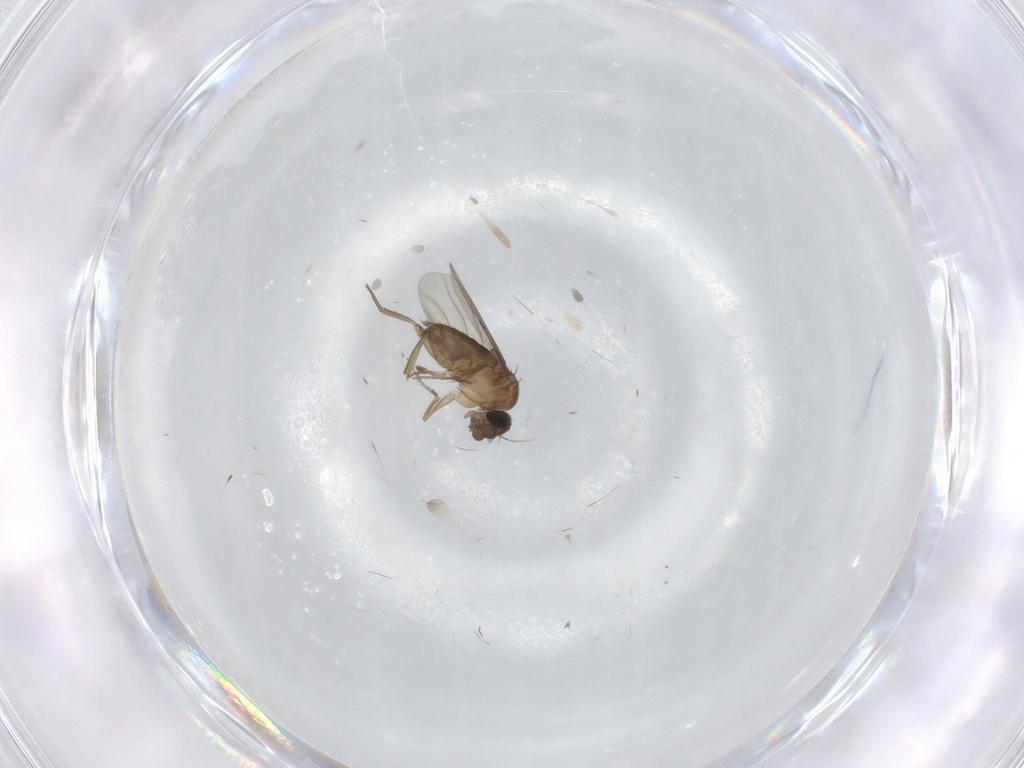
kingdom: Animalia
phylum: Arthropoda
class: Insecta
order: Diptera
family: Phoridae
